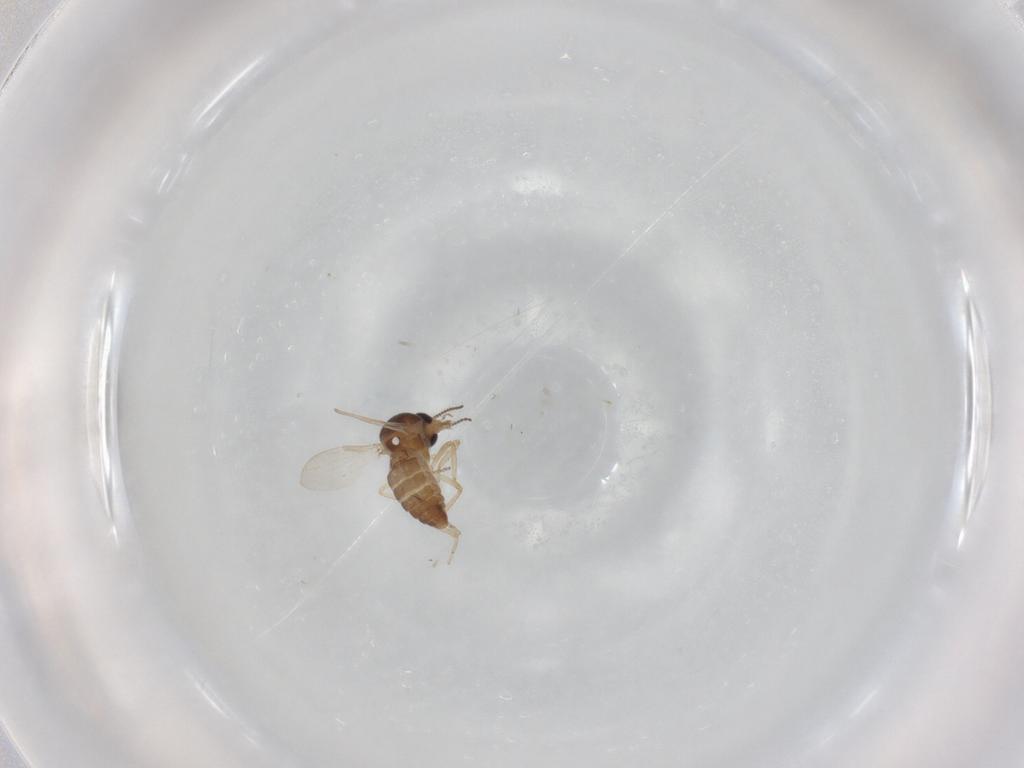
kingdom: Animalia
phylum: Arthropoda
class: Insecta
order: Diptera
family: Ceratopogonidae
